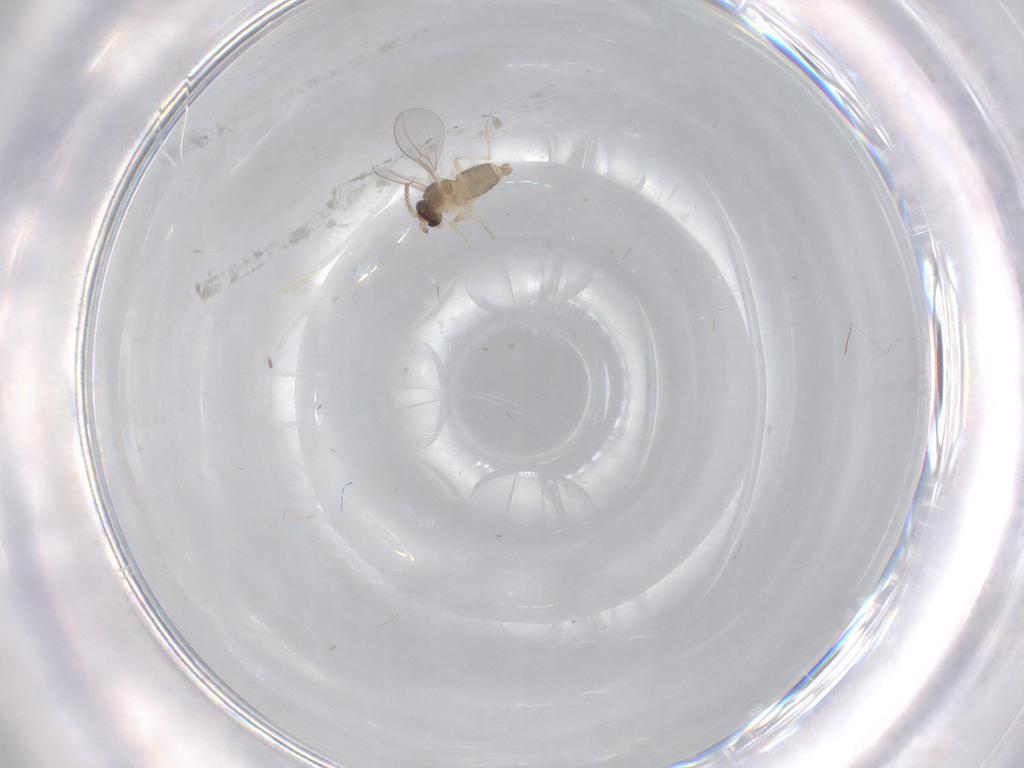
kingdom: Animalia
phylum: Arthropoda
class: Insecta
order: Diptera
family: Cecidomyiidae
